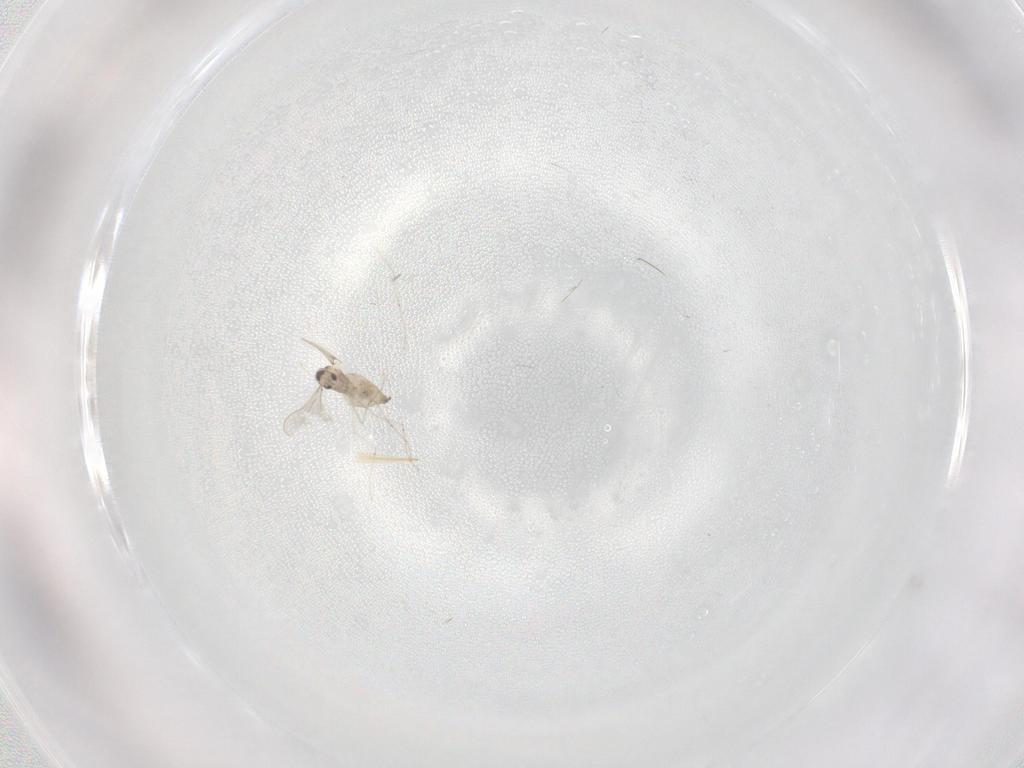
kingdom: Animalia
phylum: Arthropoda
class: Insecta
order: Diptera
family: Cecidomyiidae
